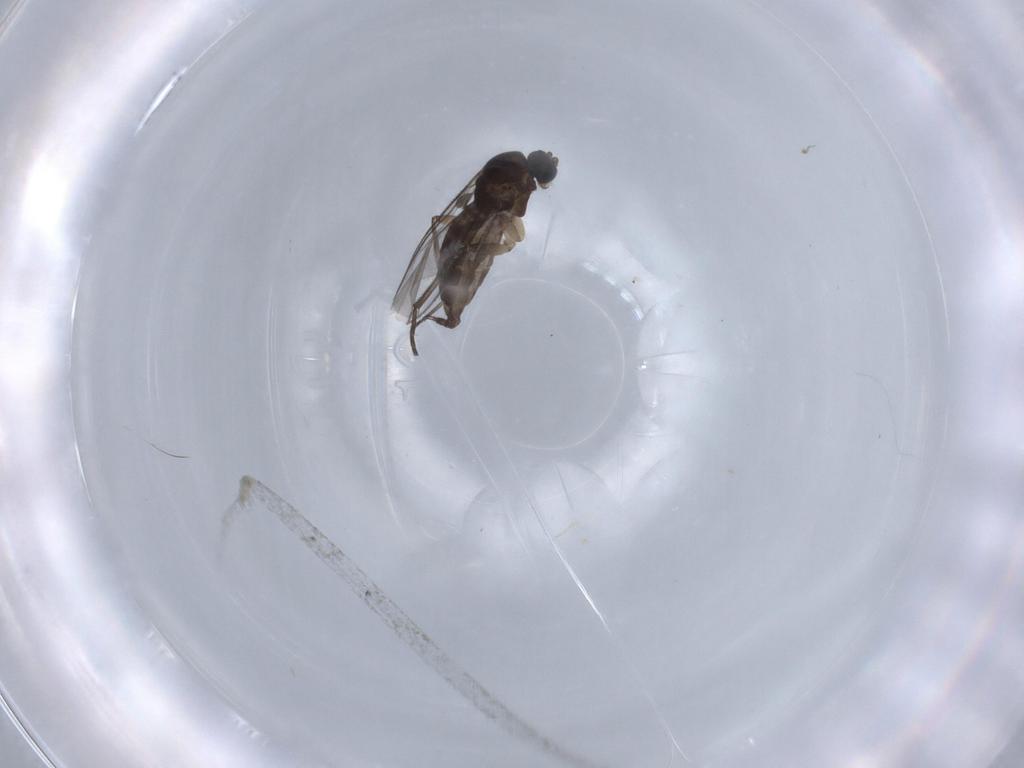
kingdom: Animalia
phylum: Arthropoda
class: Insecta
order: Diptera
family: Sciaridae
